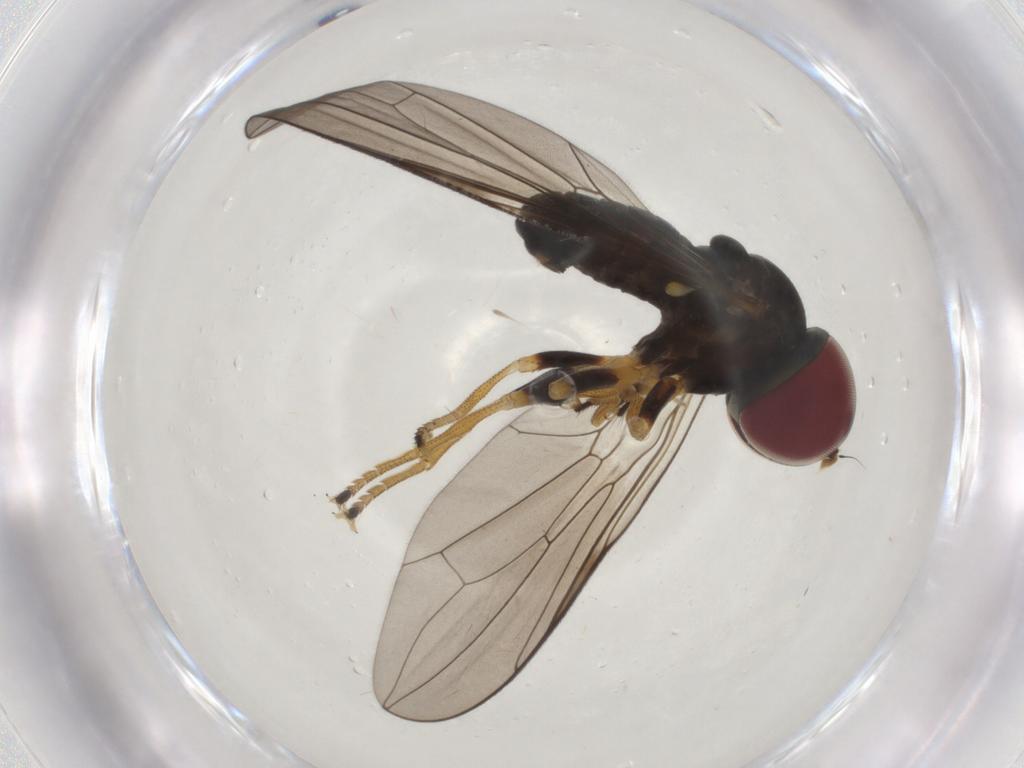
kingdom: Animalia
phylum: Arthropoda
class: Insecta
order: Diptera
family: Pipunculidae
